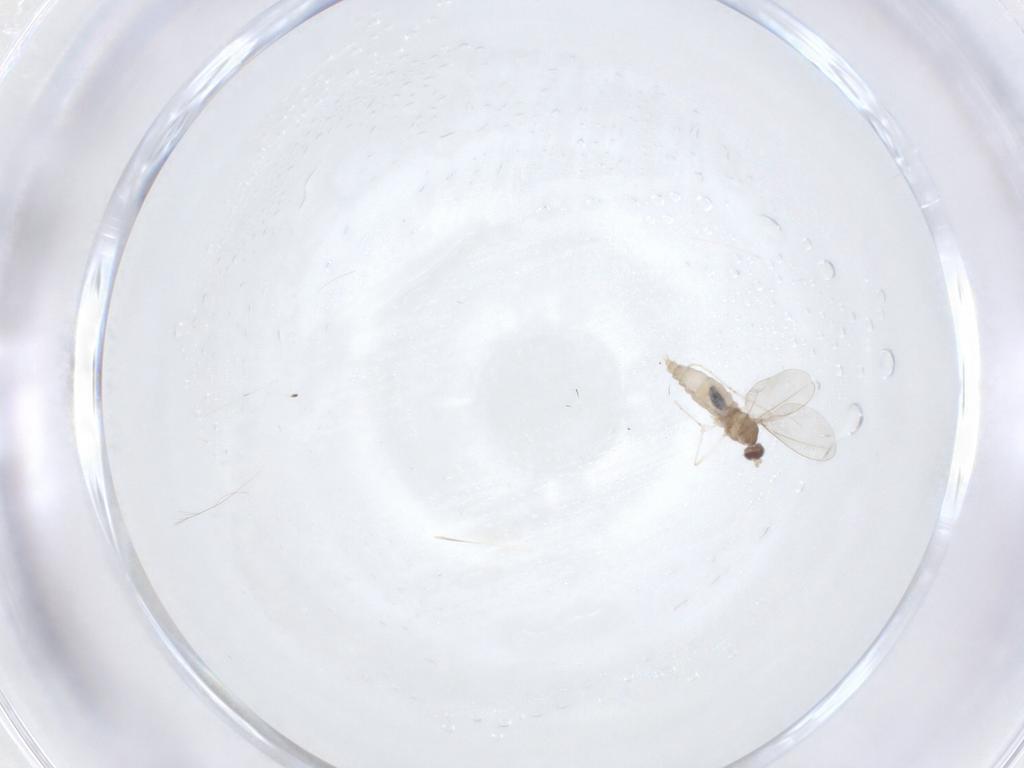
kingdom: Animalia
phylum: Arthropoda
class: Insecta
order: Diptera
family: Cecidomyiidae
